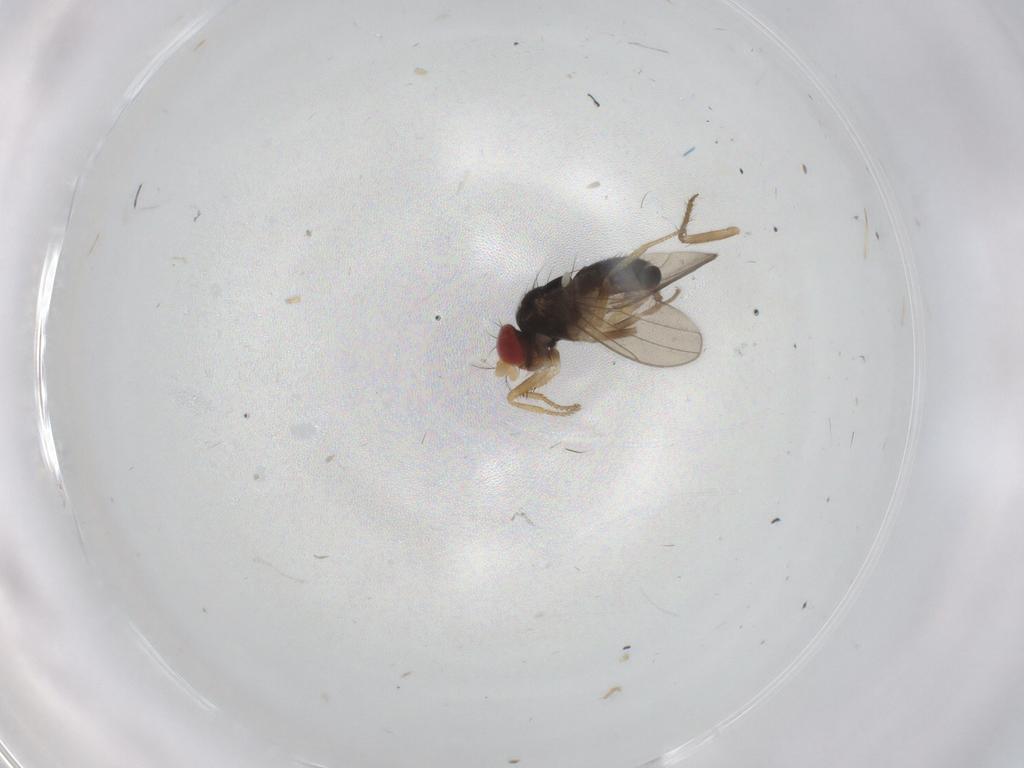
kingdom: Animalia
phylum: Arthropoda
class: Insecta
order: Diptera
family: Drosophilidae
